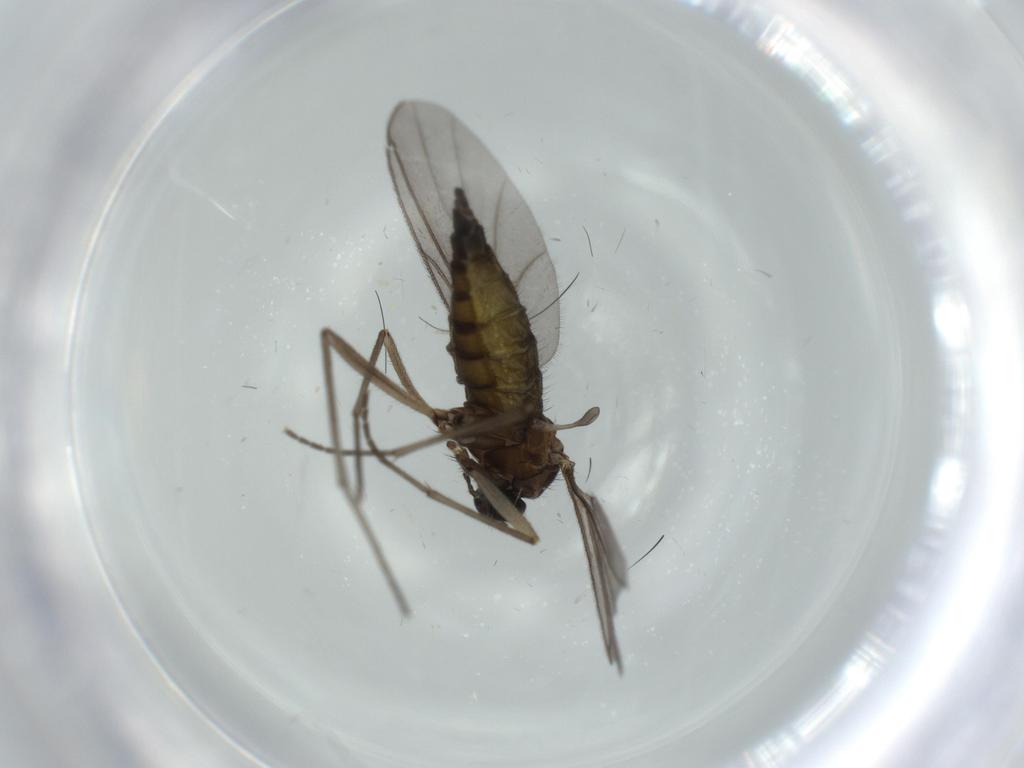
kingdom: Animalia
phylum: Arthropoda
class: Insecta
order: Diptera
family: Sciaridae
